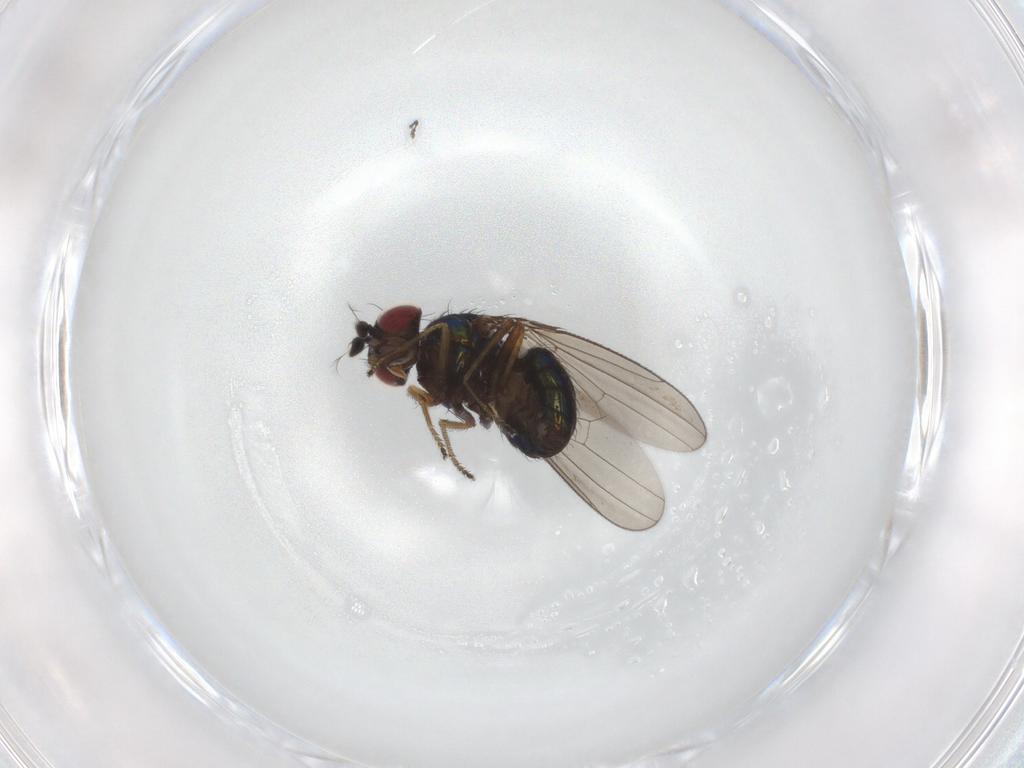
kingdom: Animalia
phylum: Arthropoda
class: Insecta
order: Diptera
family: Ephydridae
